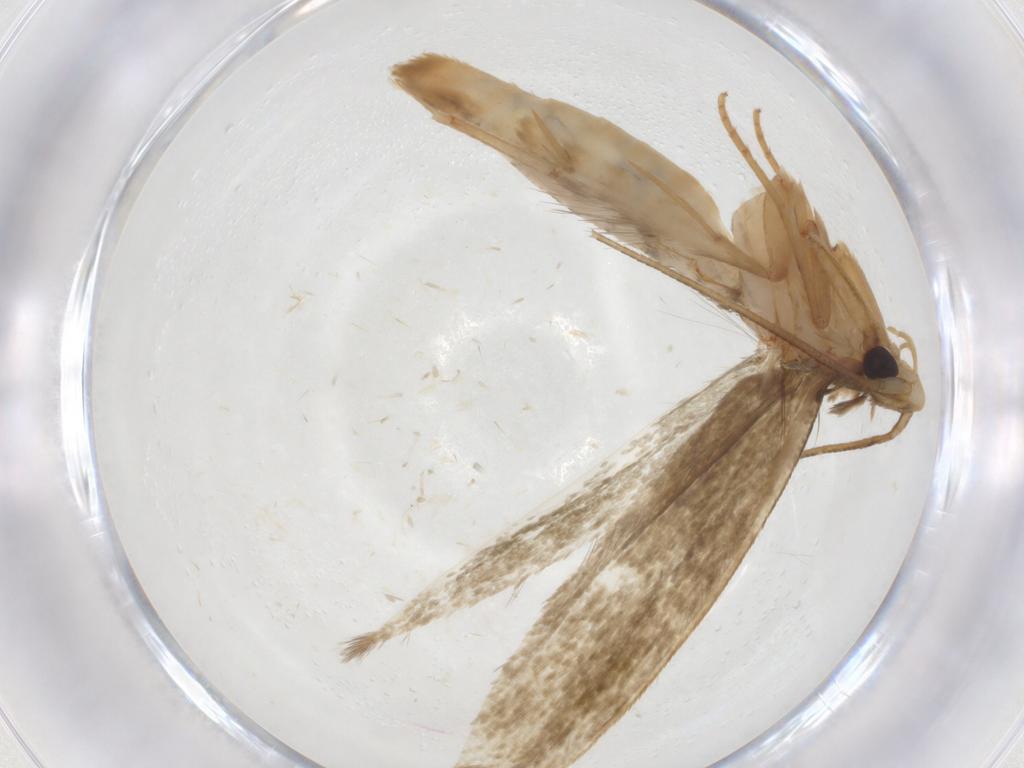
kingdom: Animalia
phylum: Arthropoda
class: Insecta
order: Lepidoptera
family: Tineidae
